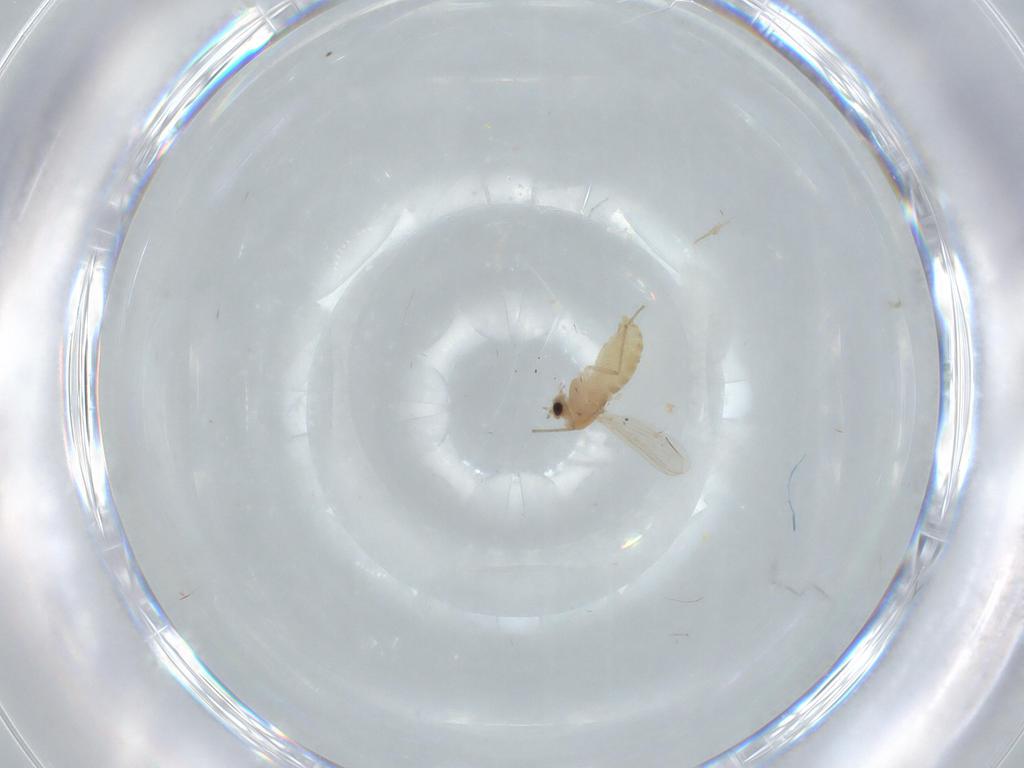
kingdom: Animalia
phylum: Arthropoda
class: Insecta
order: Diptera
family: Chironomidae
